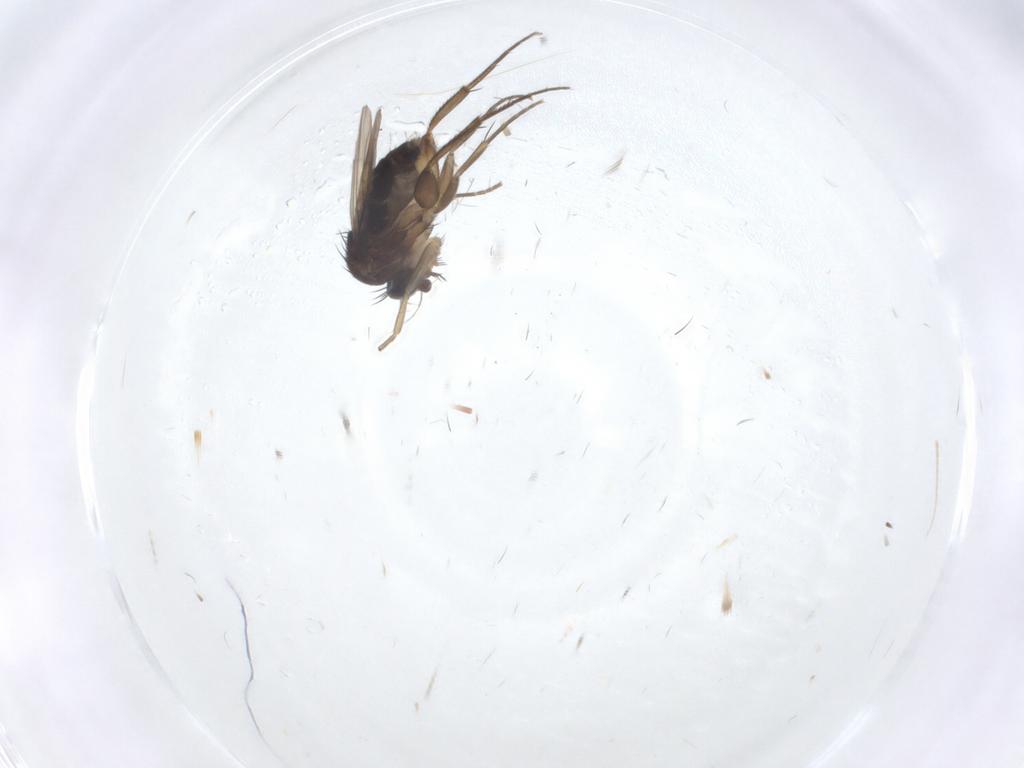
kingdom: Animalia
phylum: Arthropoda
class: Insecta
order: Diptera
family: Phoridae
